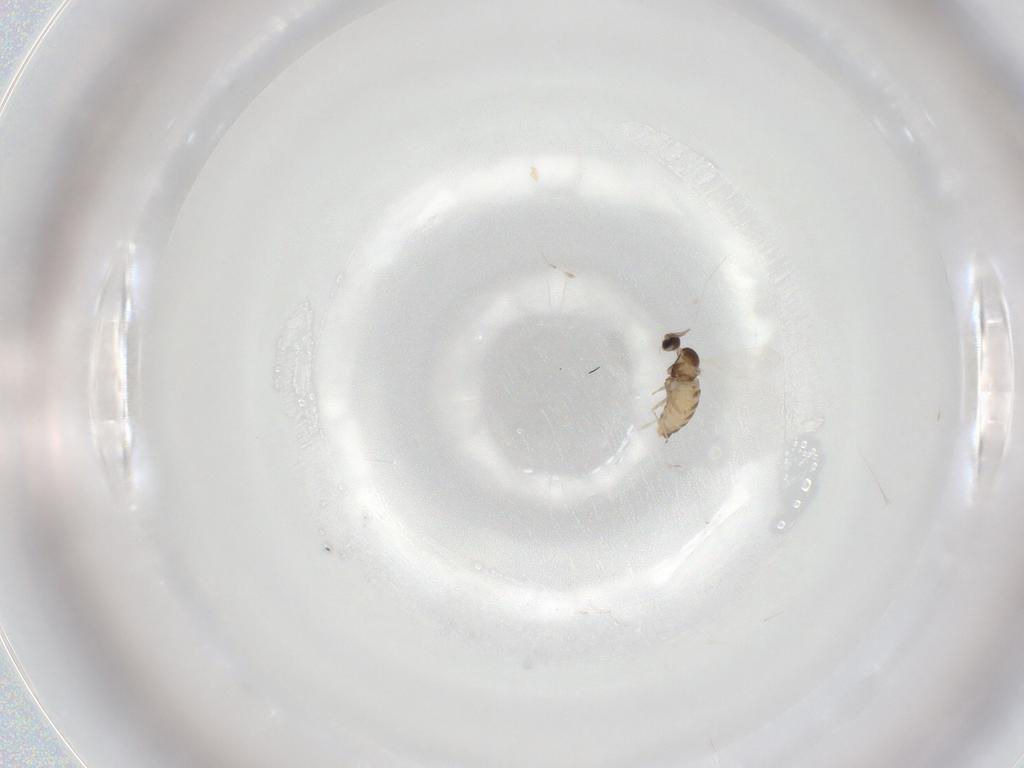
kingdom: Animalia
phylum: Arthropoda
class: Insecta
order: Diptera
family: Cecidomyiidae
